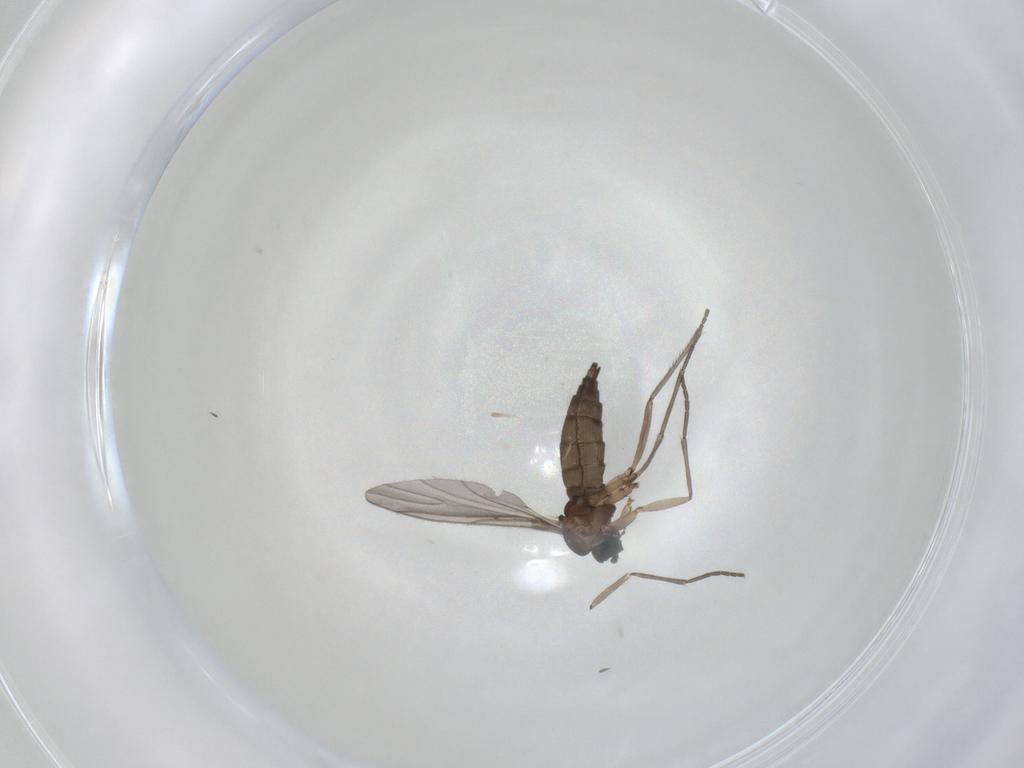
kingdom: Animalia
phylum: Arthropoda
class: Insecta
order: Diptera
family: Sciaridae
